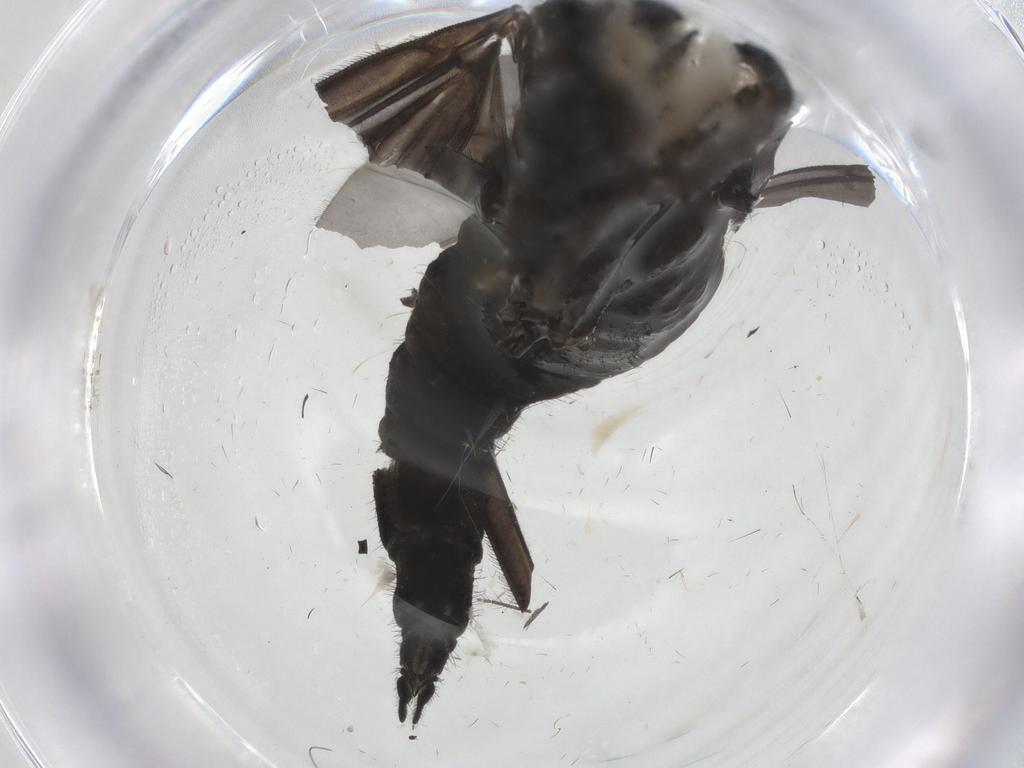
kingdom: Animalia
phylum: Arthropoda
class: Insecta
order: Diptera
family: Sciaridae
